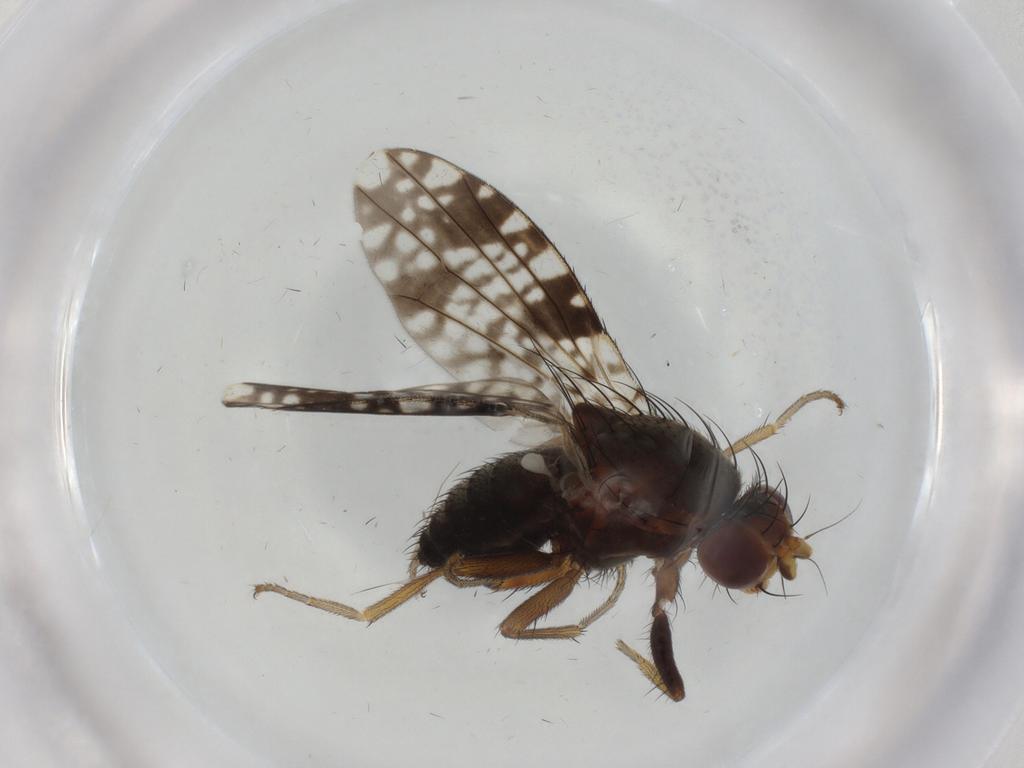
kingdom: Animalia
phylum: Arthropoda
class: Insecta
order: Diptera
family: Tephritidae
